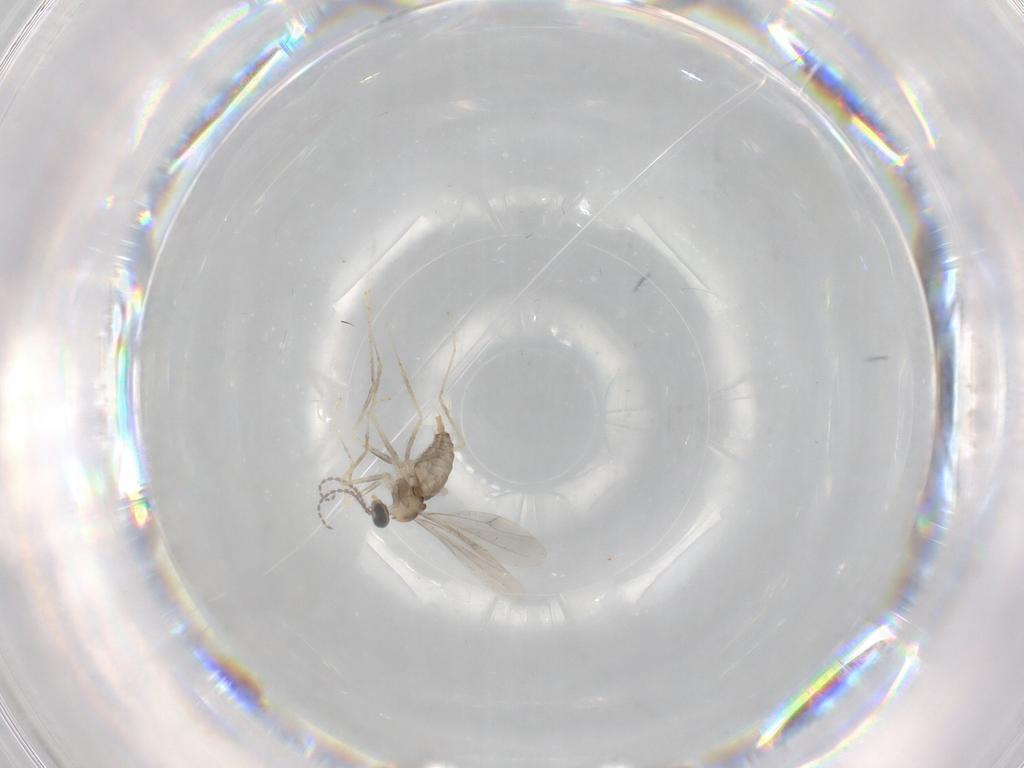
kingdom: Animalia
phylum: Arthropoda
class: Insecta
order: Diptera
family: Cecidomyiidae
